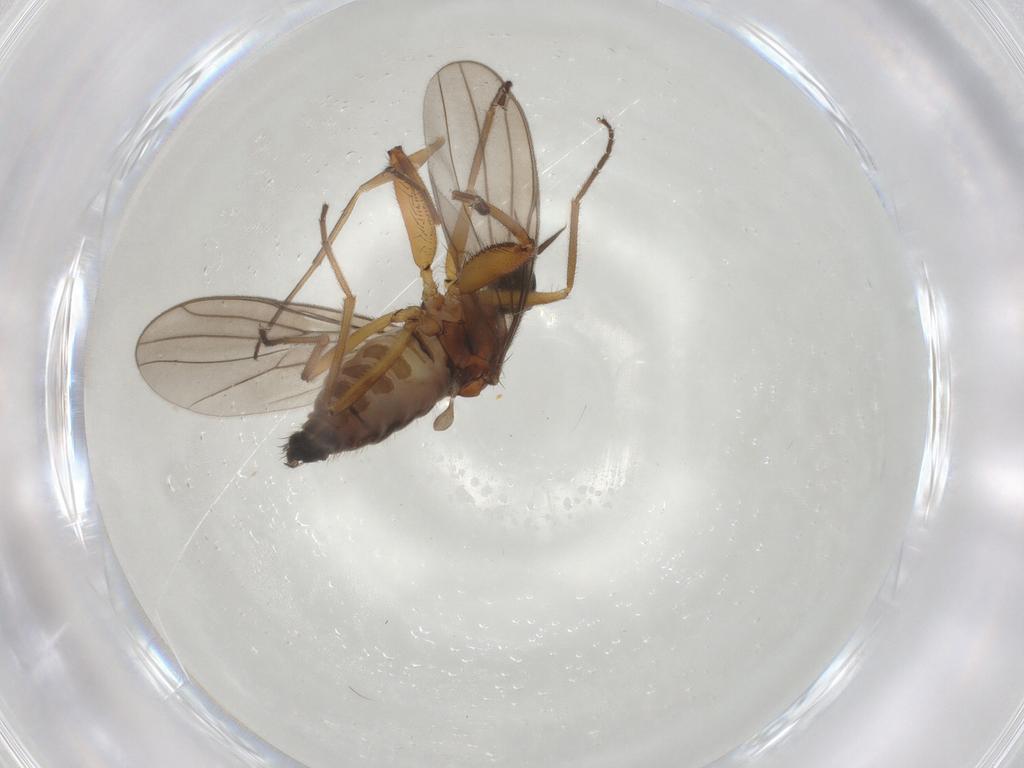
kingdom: Animalia
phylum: Arthropoda
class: Insecta
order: Diptera
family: Hybotidae
